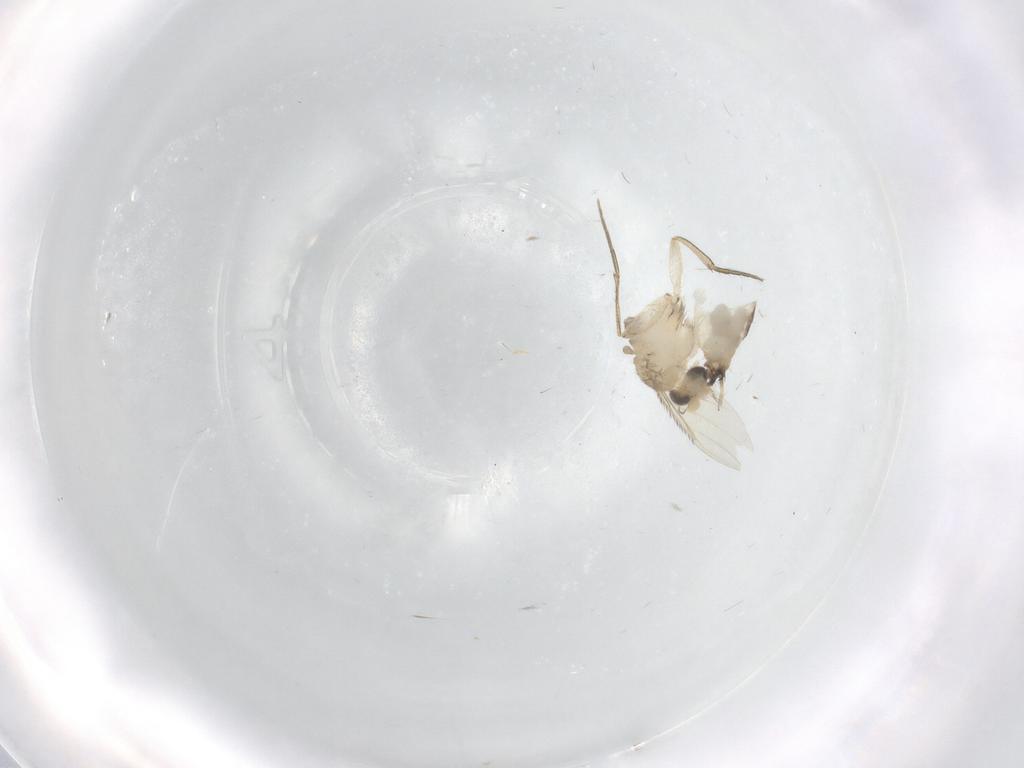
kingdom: Animalia
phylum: Arthropoda
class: Insecta
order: Diptera
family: Phoridae
